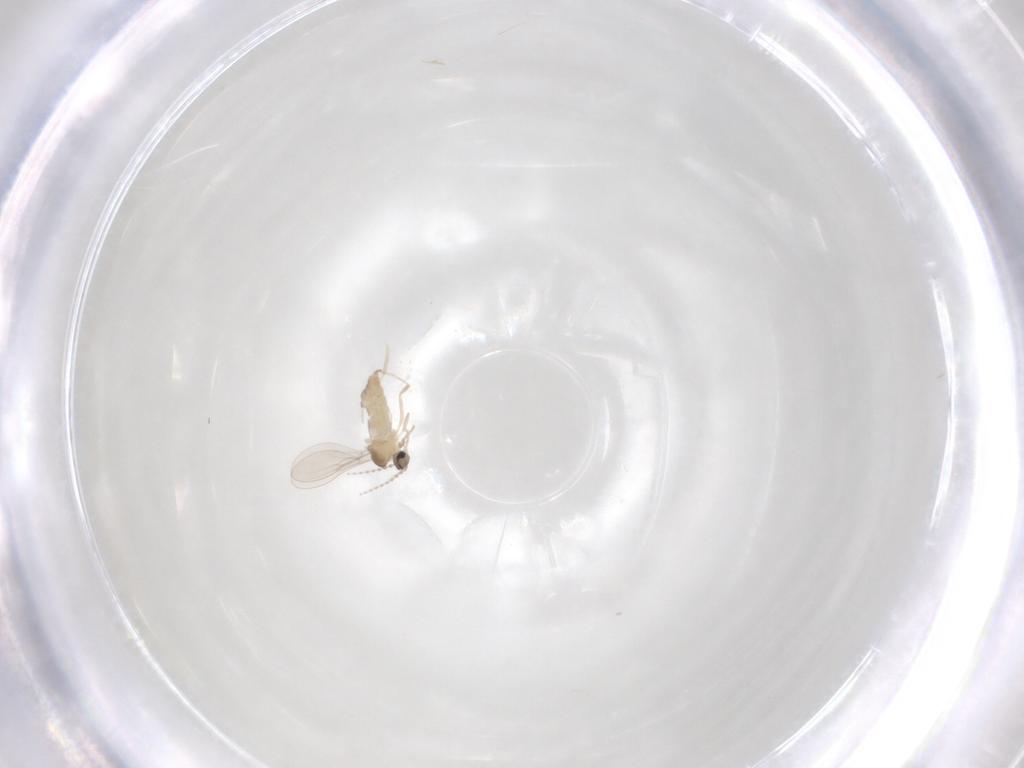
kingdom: Animalia
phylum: Arthropoda
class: Insecta
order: Diptera
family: Cecidomyiidae
